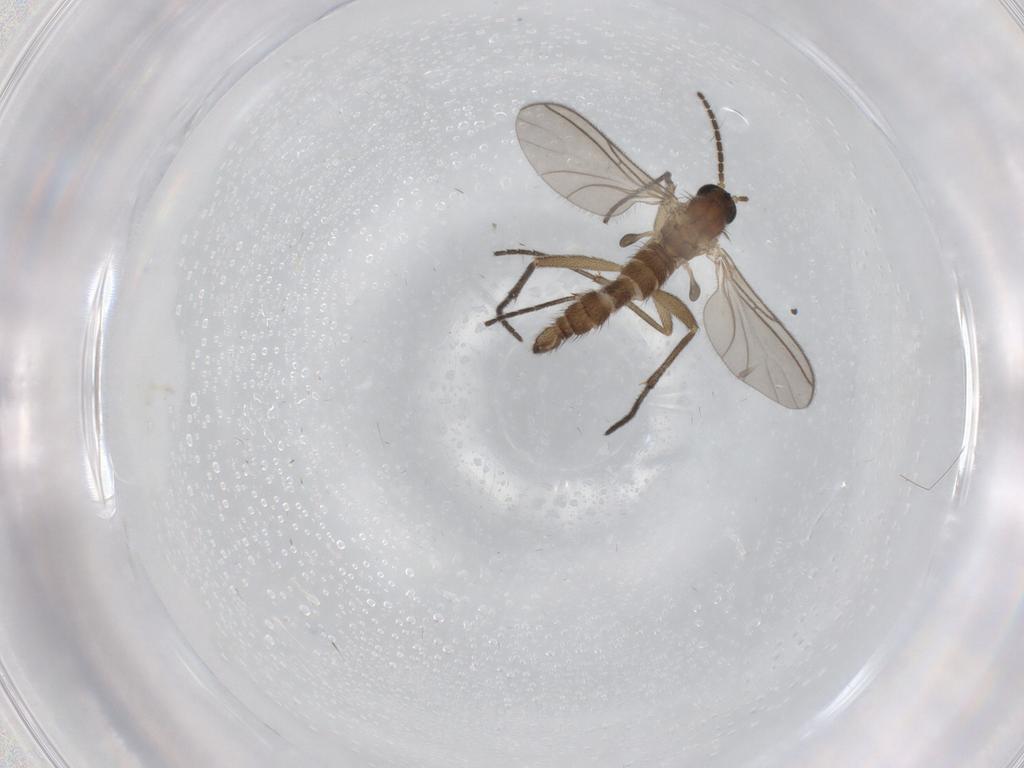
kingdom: Animalia
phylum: Arthropoda
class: Insecta
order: Diptera
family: Sciaridae
